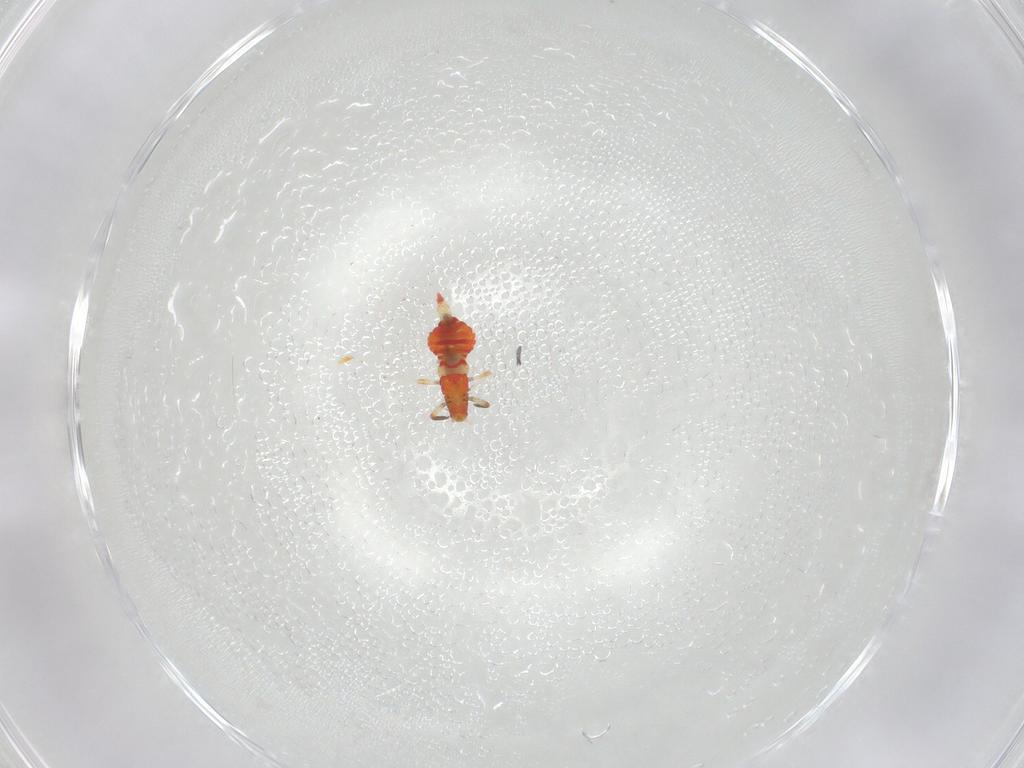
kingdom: Animalia
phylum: Arthropoda
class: Insecta
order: Thysanoptera
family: Aeolothripidae
